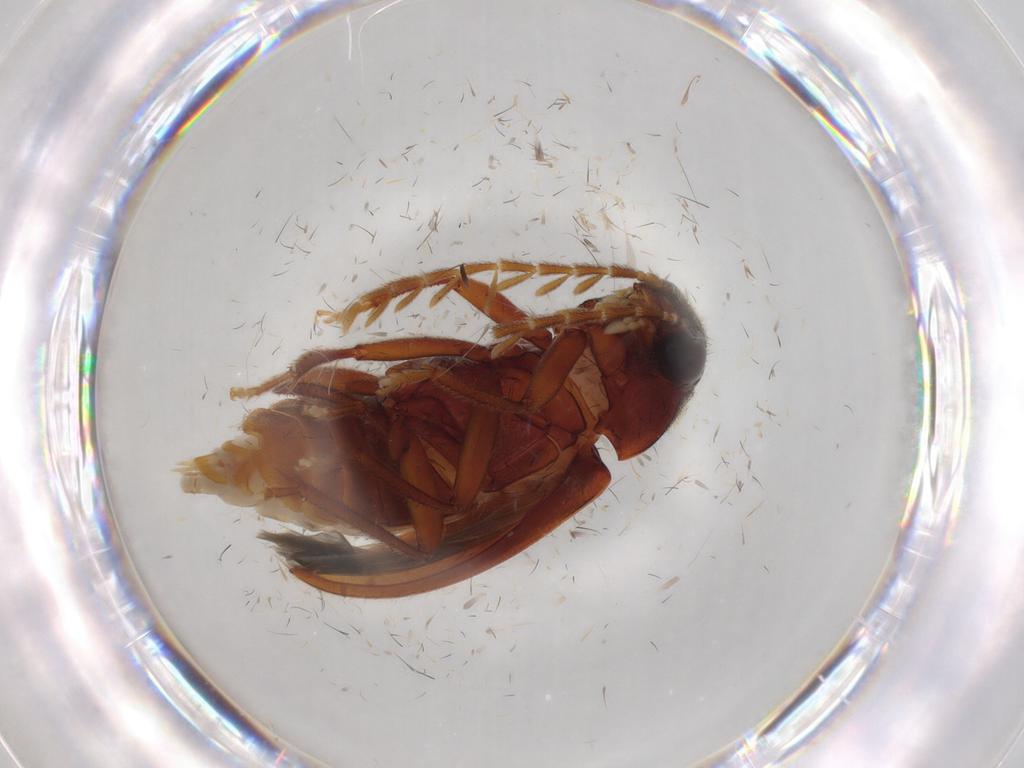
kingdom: Animalia
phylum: Arthropoda
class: Insecta
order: Coleoptera
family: Ptilodactylidae
